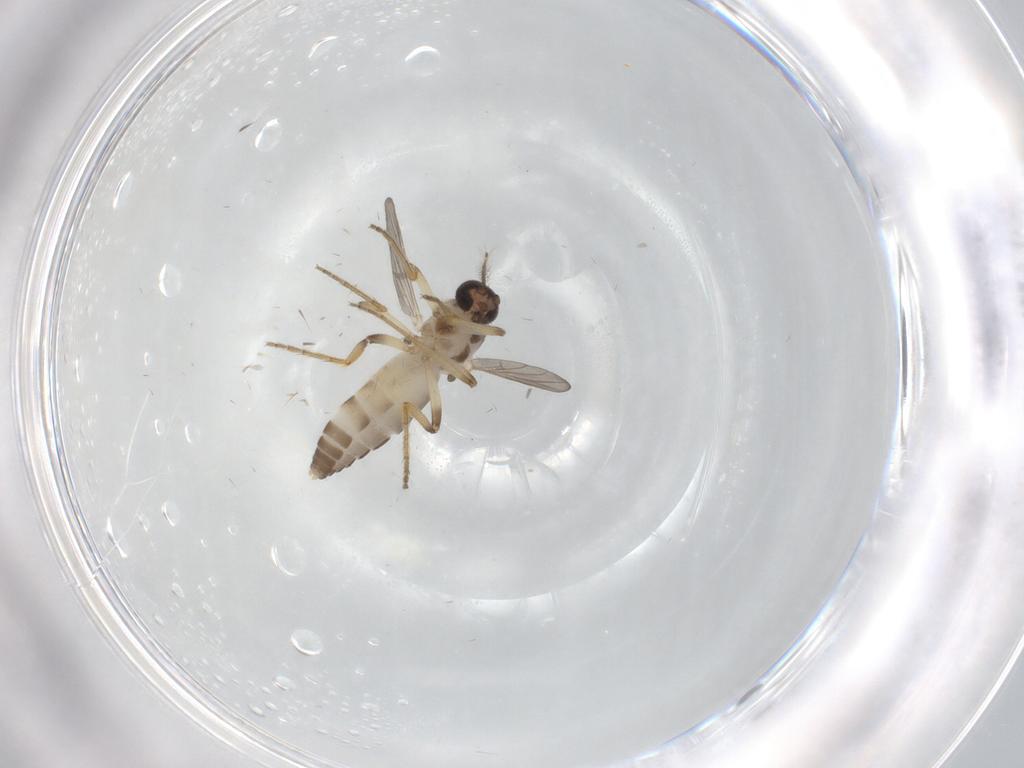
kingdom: Animalia
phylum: Arthropoda
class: Insecta
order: Diptera
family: Ceratopogonidae
